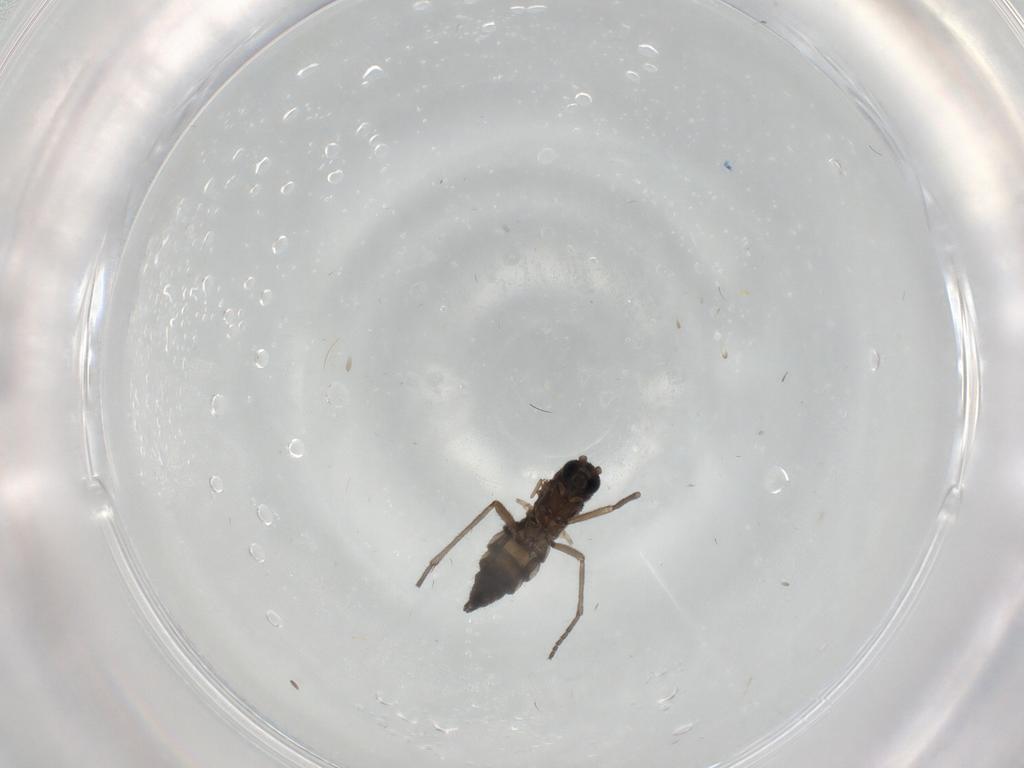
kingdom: Animalia
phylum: Arthropoda
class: Insecta
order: Diptera
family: Sciaridae
